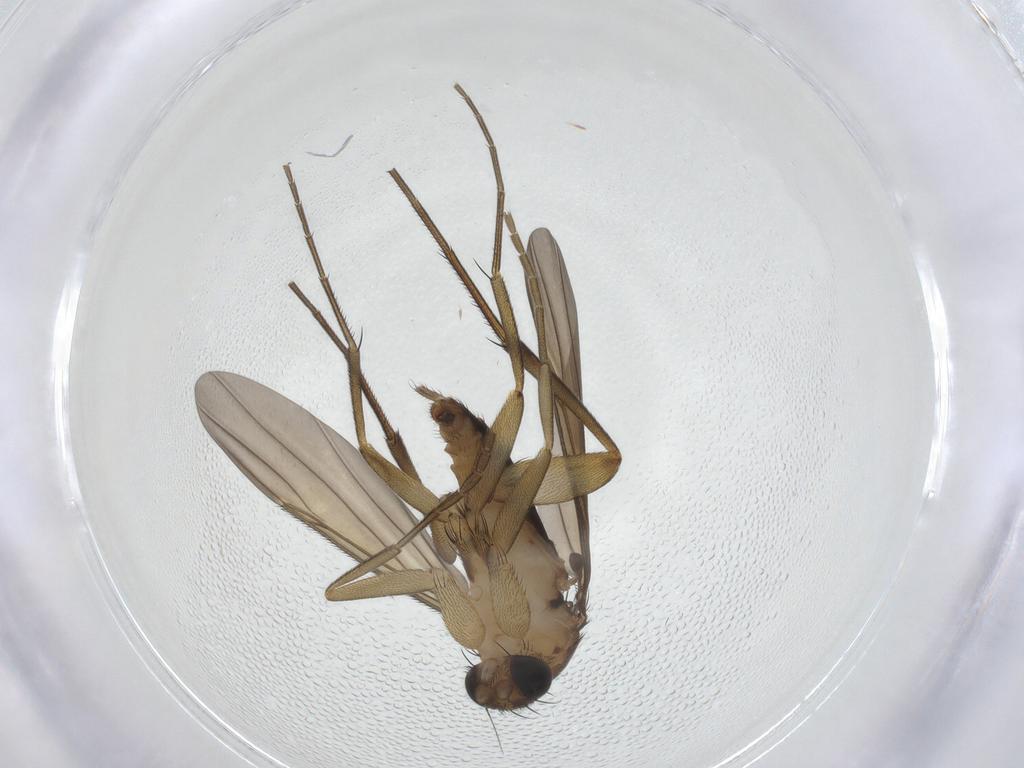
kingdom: Animalia
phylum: Arthropoda
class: Insecta
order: Diptera
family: Phoridae
